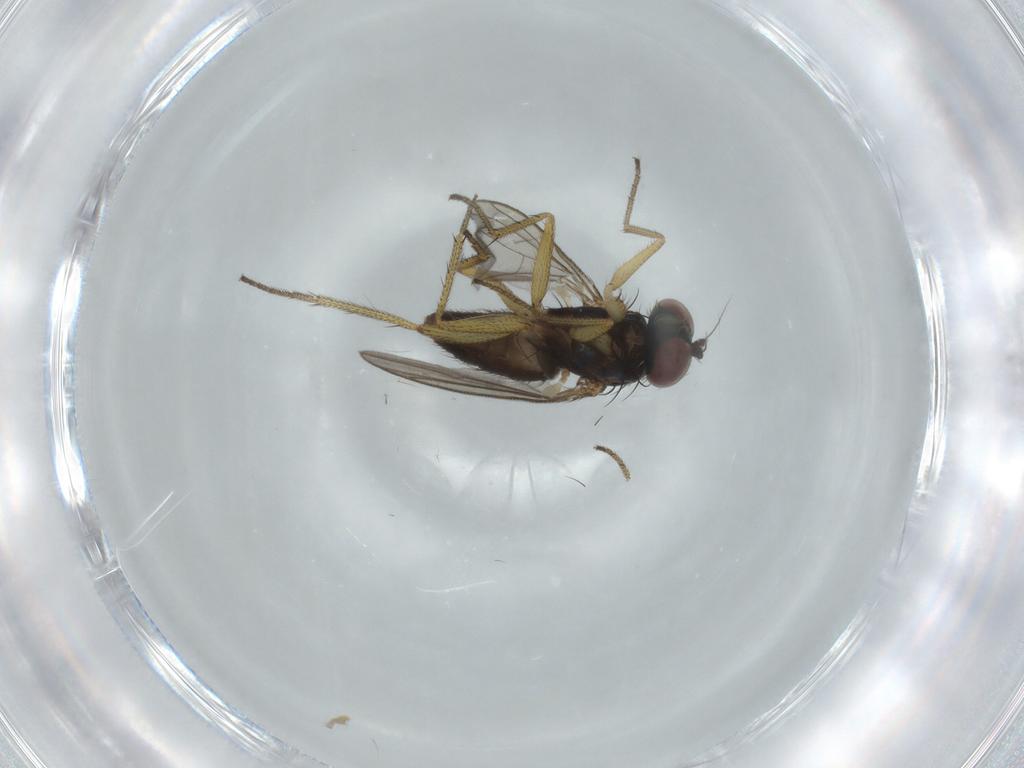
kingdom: Animalia
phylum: Arthropoda
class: Insecta
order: Diptera
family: Dolichopodidae
